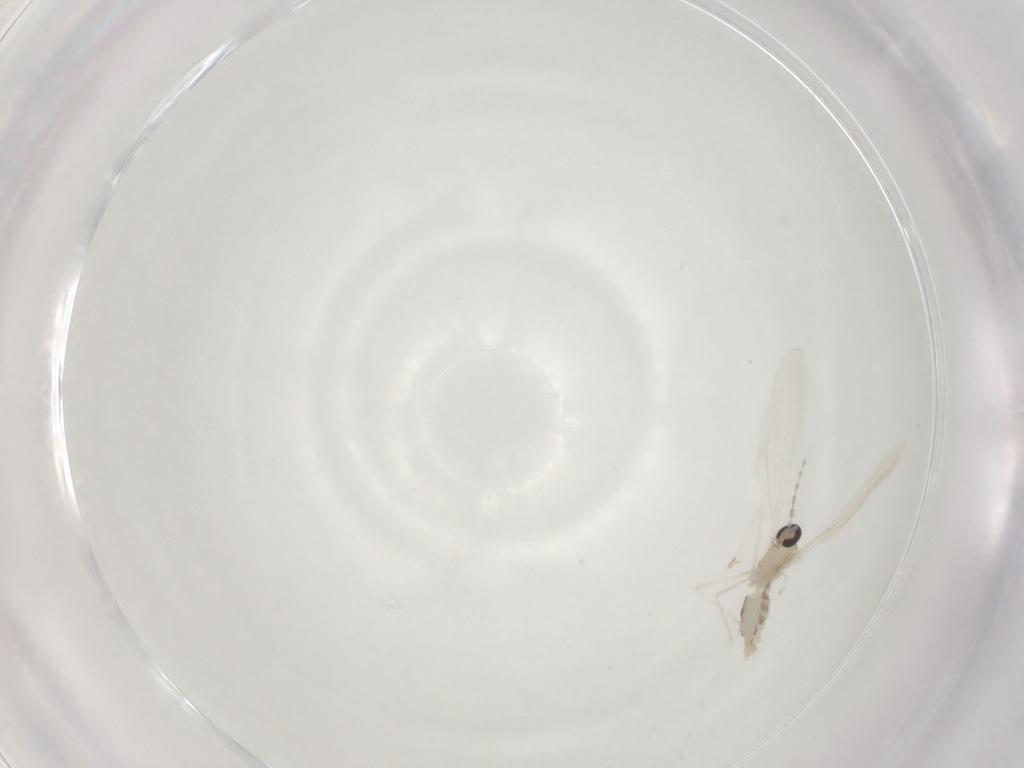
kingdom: Animalia
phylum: Arthropoda
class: Insecta
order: Diptera
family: Cecidomyiidae
